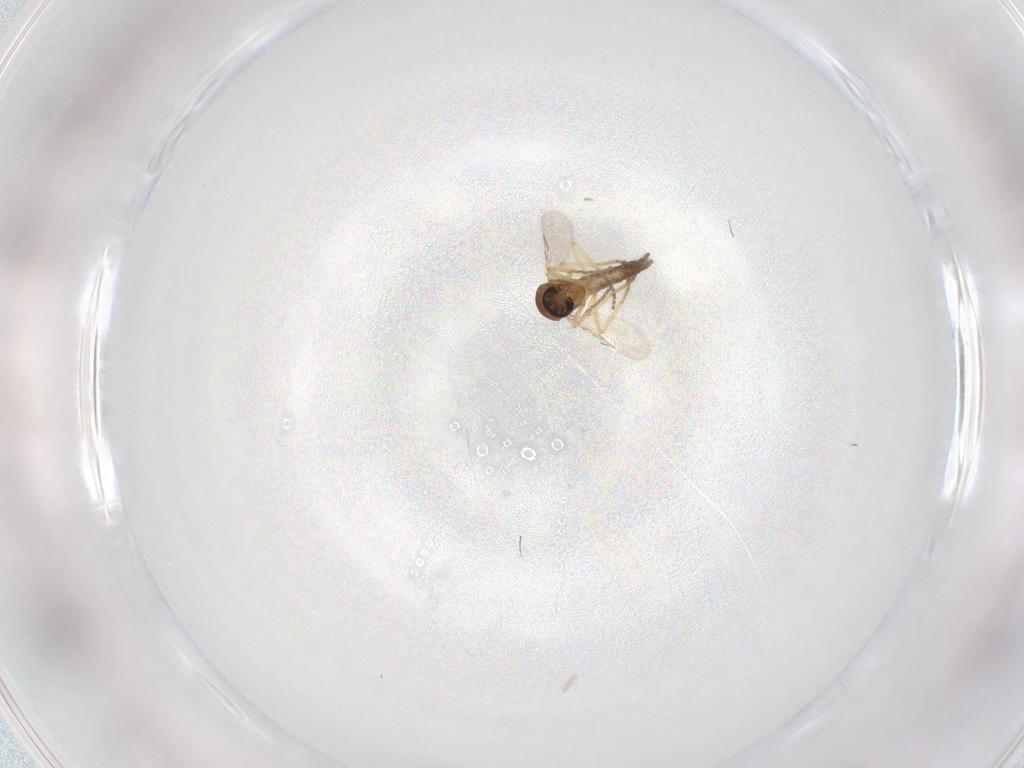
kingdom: Animalia
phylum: Arthropoda
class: Insecta
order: Diptera
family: Ceratopogonidae
